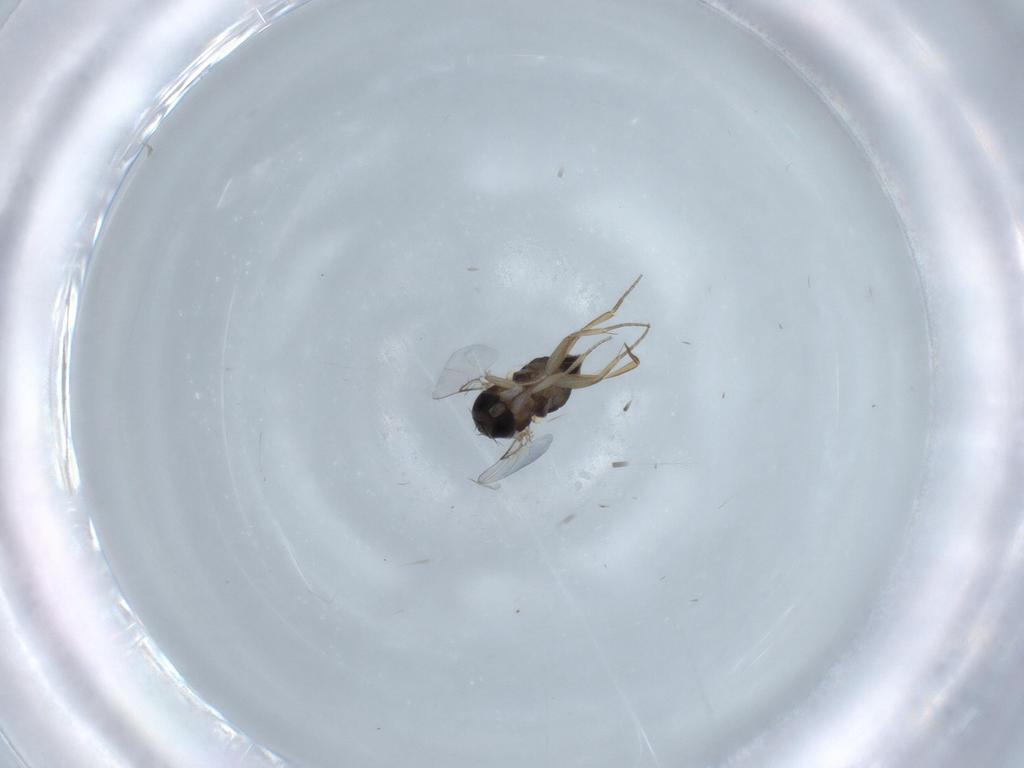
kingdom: Animalia
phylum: Arthropoda
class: Insecta
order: Diptera
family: Phoridae
